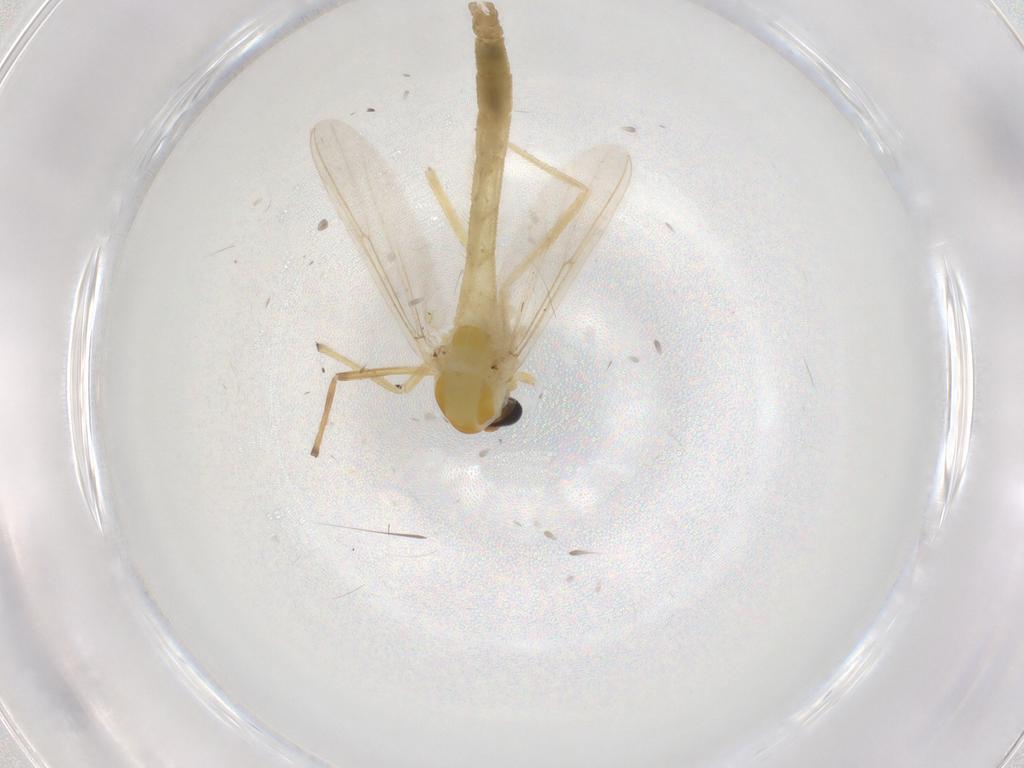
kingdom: Animalia
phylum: Arthropoda
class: Insecta
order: Diptera
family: Chironomidae
